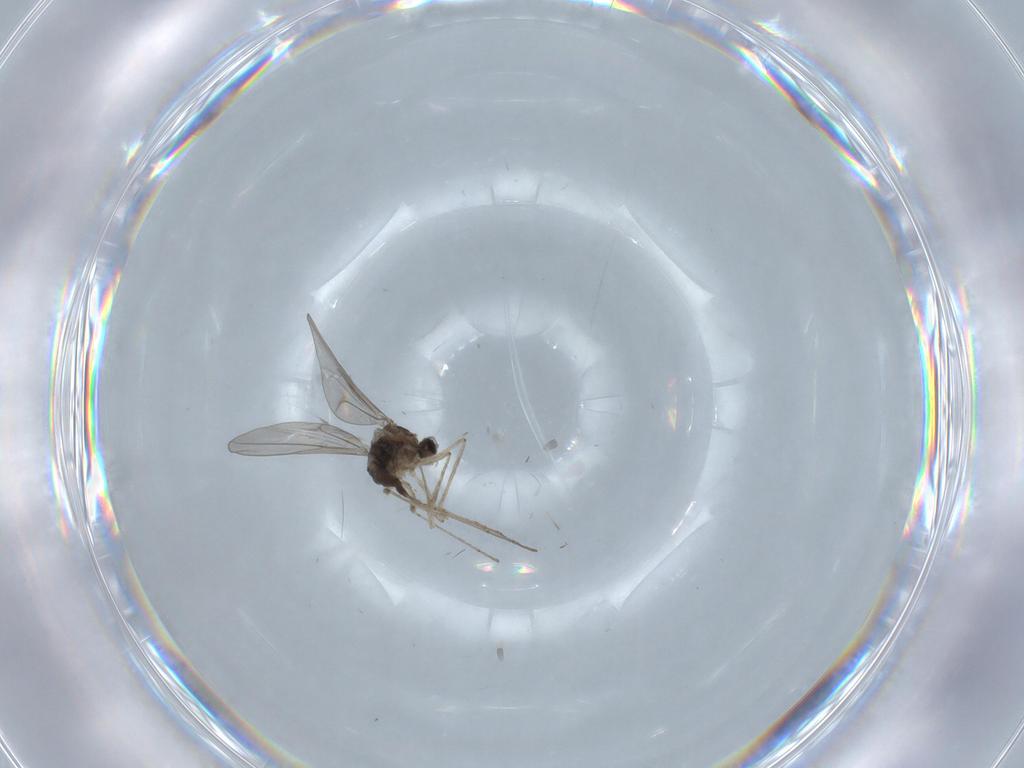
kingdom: Animalia
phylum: Arthropoda
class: Insecta
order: Diptera
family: Cecidomyiidae
